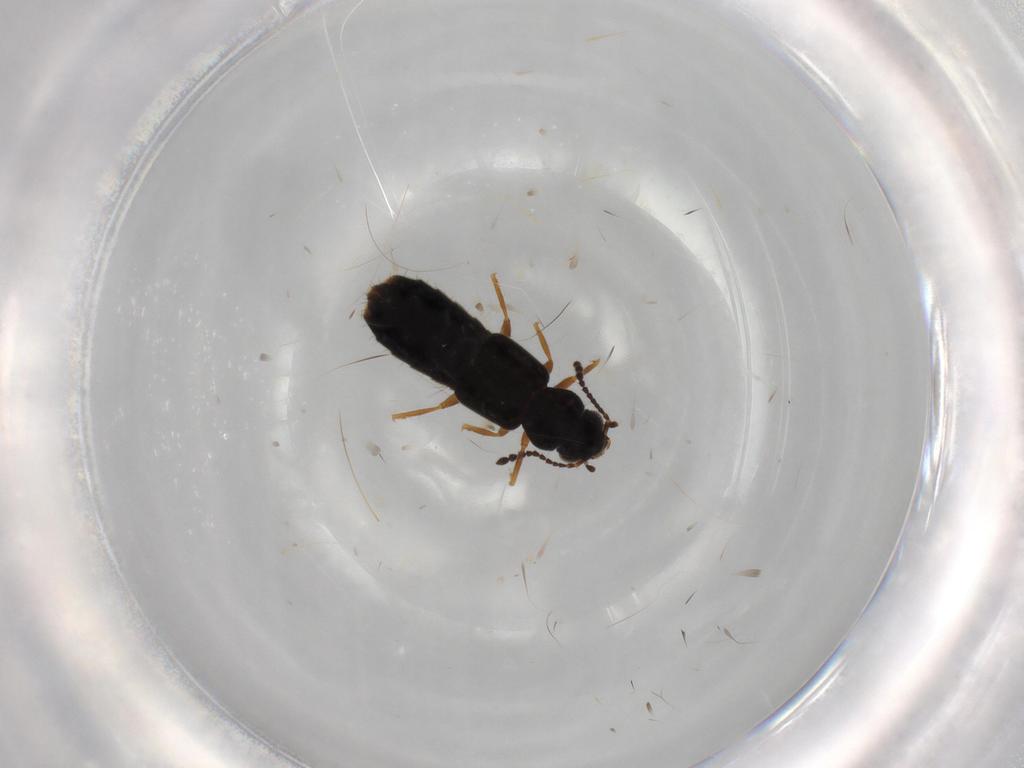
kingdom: Animalia
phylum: Arthropoda
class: Insecta
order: Coleoptera
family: Staphylinidae
